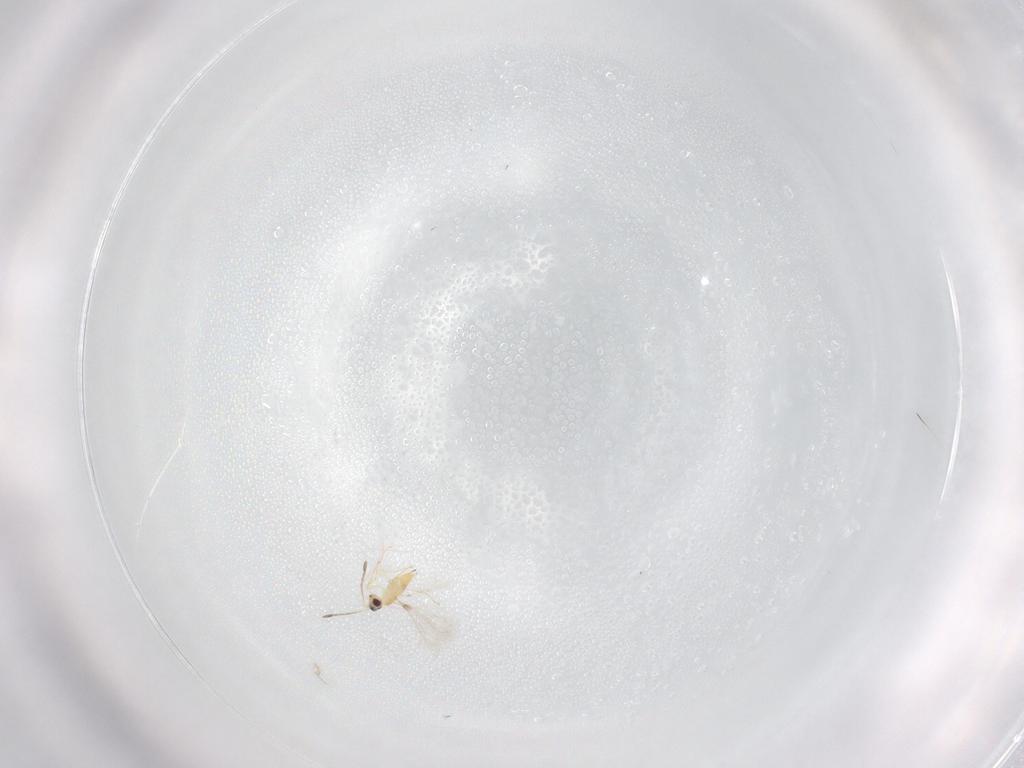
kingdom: Animalia
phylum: Arthropoda
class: Insecta
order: Hymenoptera
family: Mymaridae
